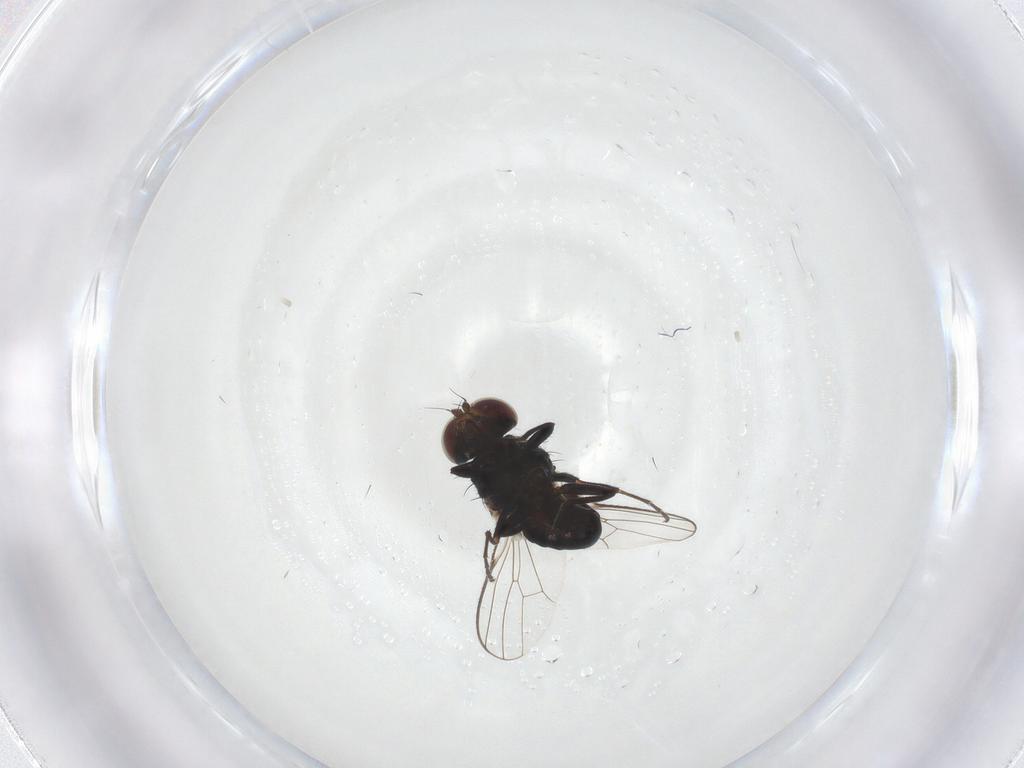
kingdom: Animalia
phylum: Arthropoda
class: Insecta
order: Diptera
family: Carnidae
